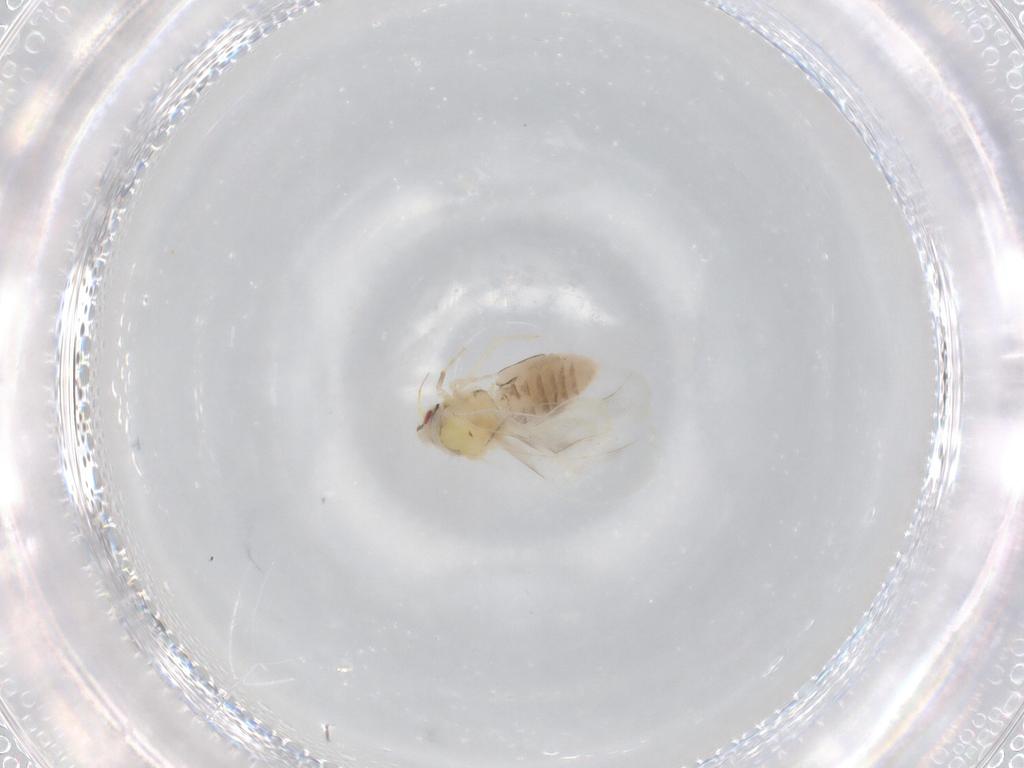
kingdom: Animalia
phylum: Arthropoda
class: Insecta
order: Hemiptera
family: Aleyrodidae
